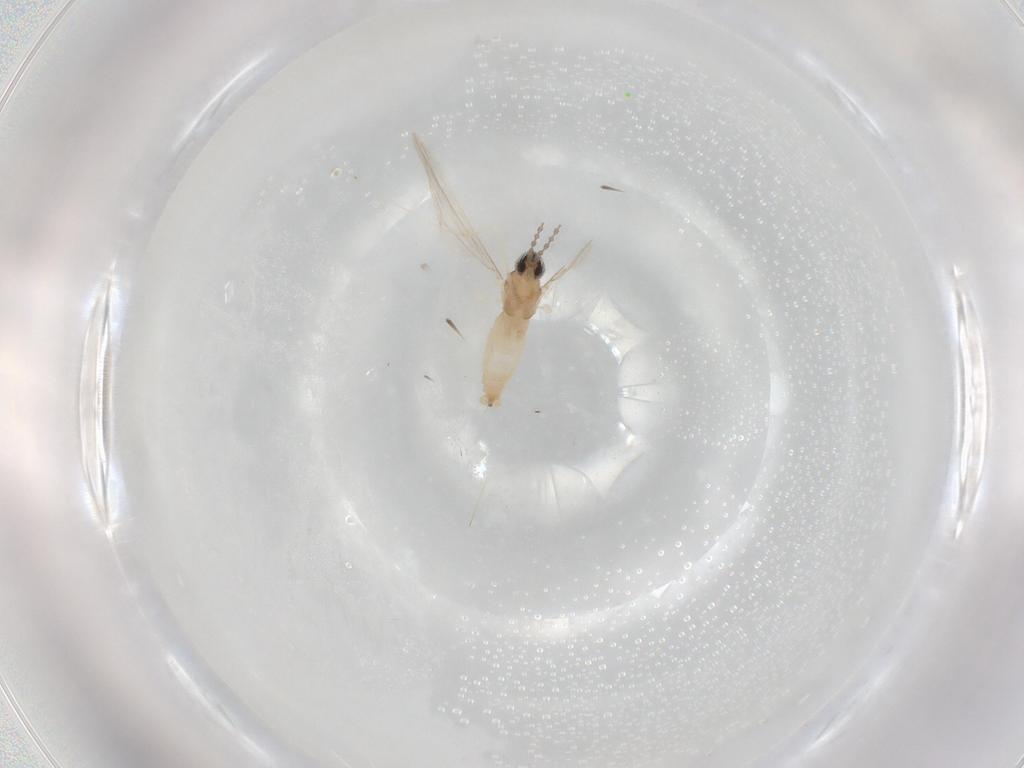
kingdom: Animalia
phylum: Arthropoda
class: Insecta
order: Diptera
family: Cecidomyiidae
